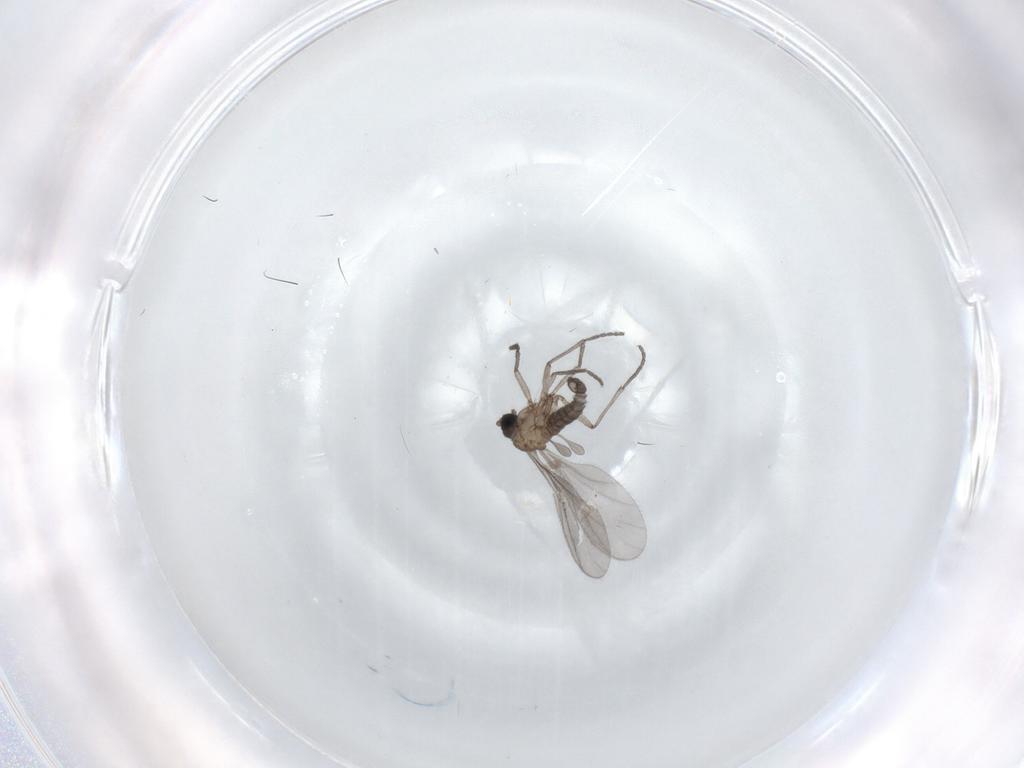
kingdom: Animalia
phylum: Arthropoda
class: Insecta
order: Diptera
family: Sciaridae
